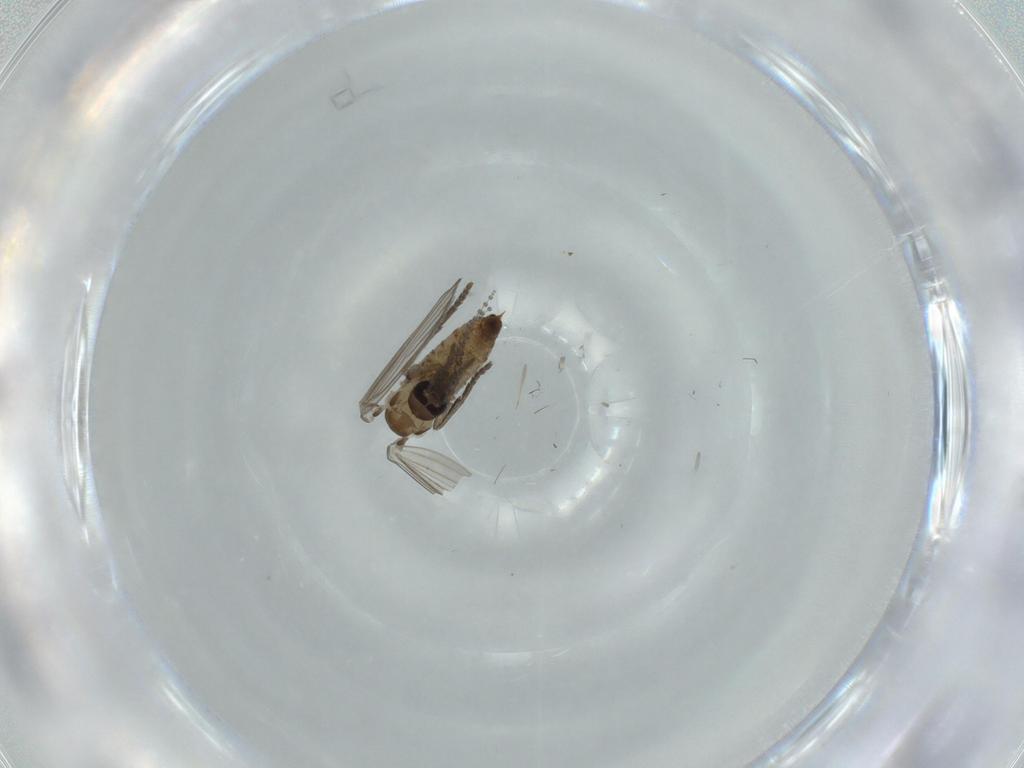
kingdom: Animalia
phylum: Arthropoda
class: Insecta
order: Diptera
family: Psychodidae
